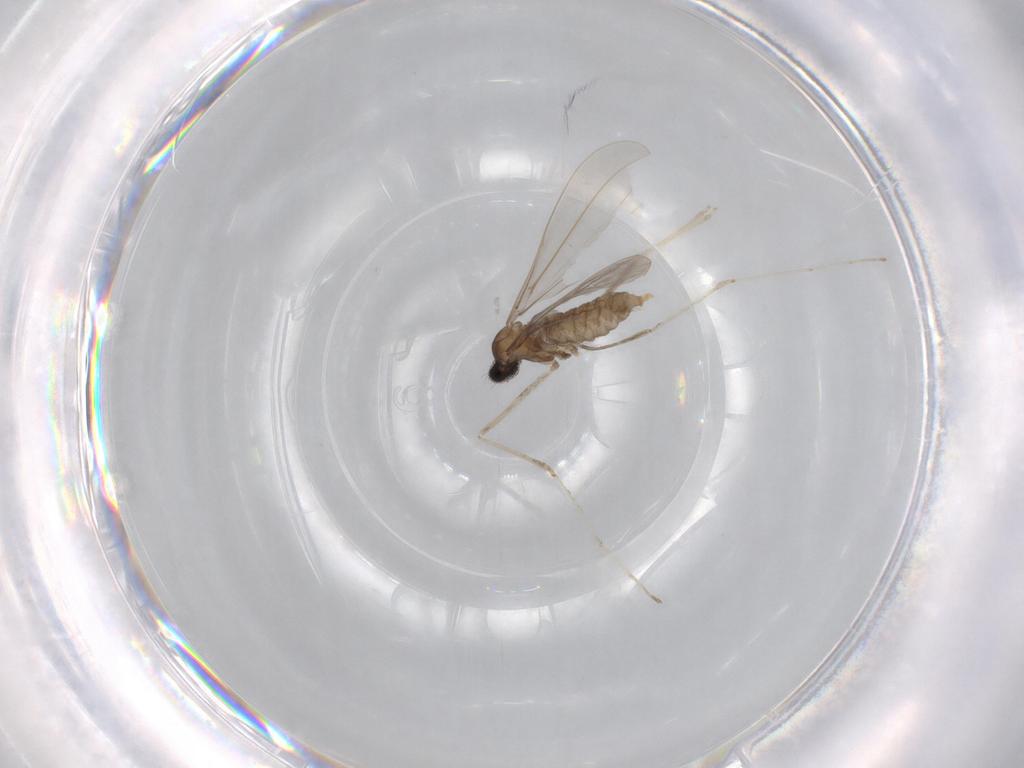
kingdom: Animalia
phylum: Arthropoda
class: Insecta
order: Diptera
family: Cecidomyiidae
